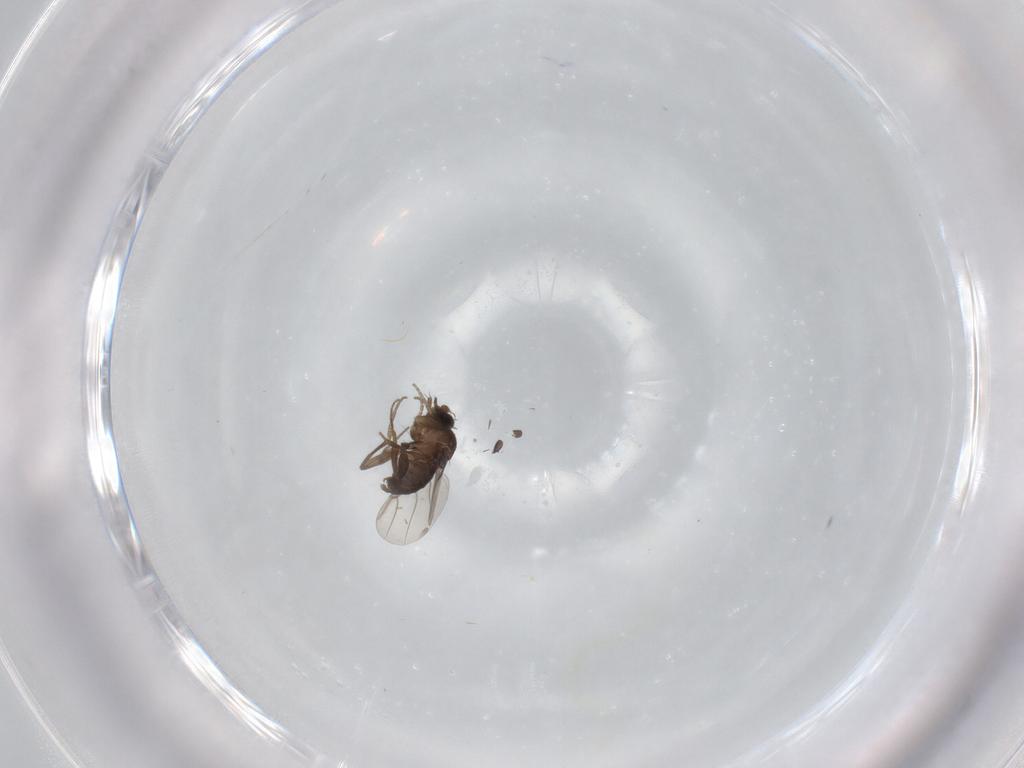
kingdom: Animalia
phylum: Arthropoda
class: Insecta
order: Diptera
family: Phoridae
